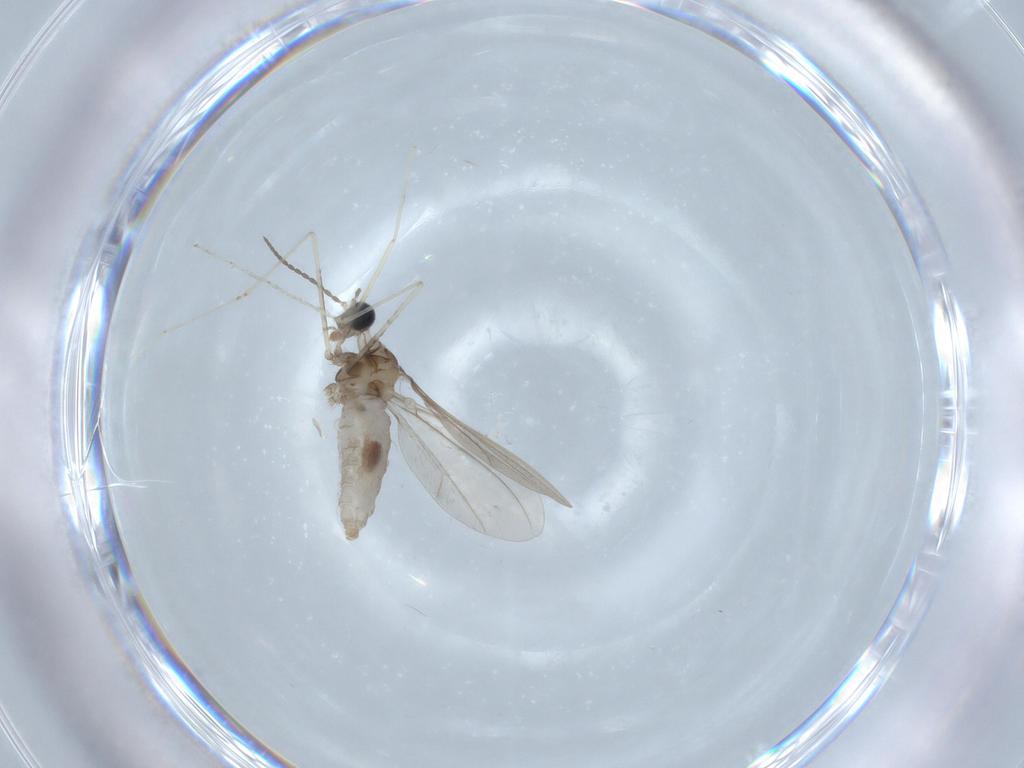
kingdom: Animalia
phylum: Arthropoda
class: Insecta
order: Diptera
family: Cecidomyiidae
